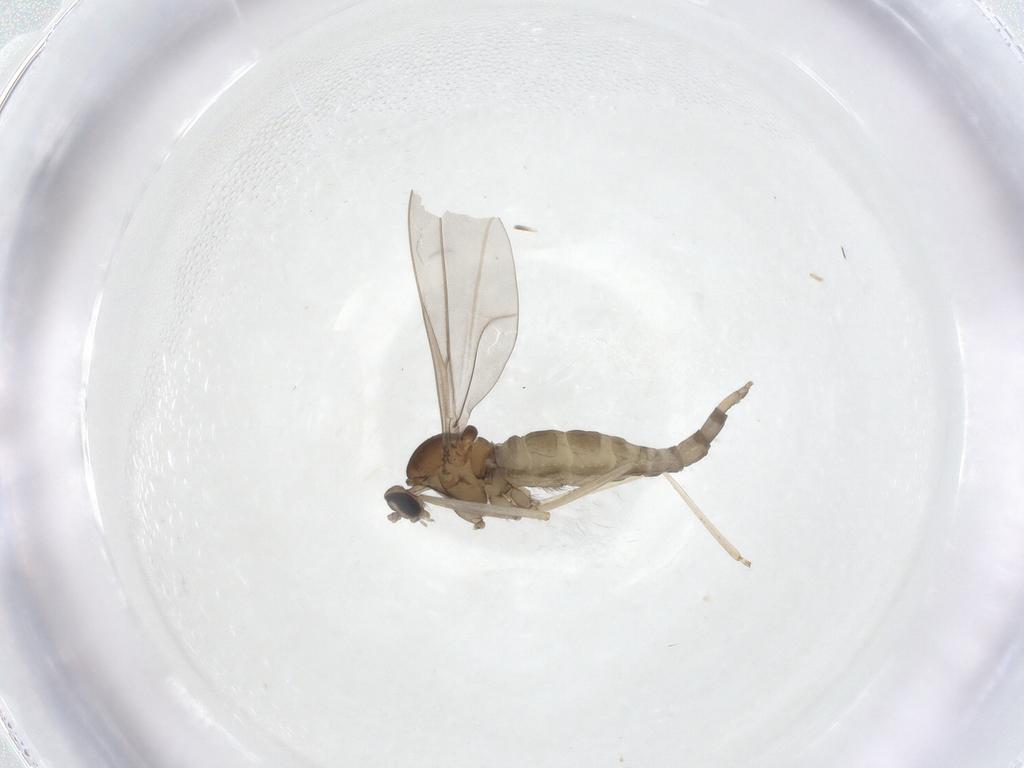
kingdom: Animalia
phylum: Arthropoda
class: Insecta
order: Diptera
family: Cecidomyiidae
